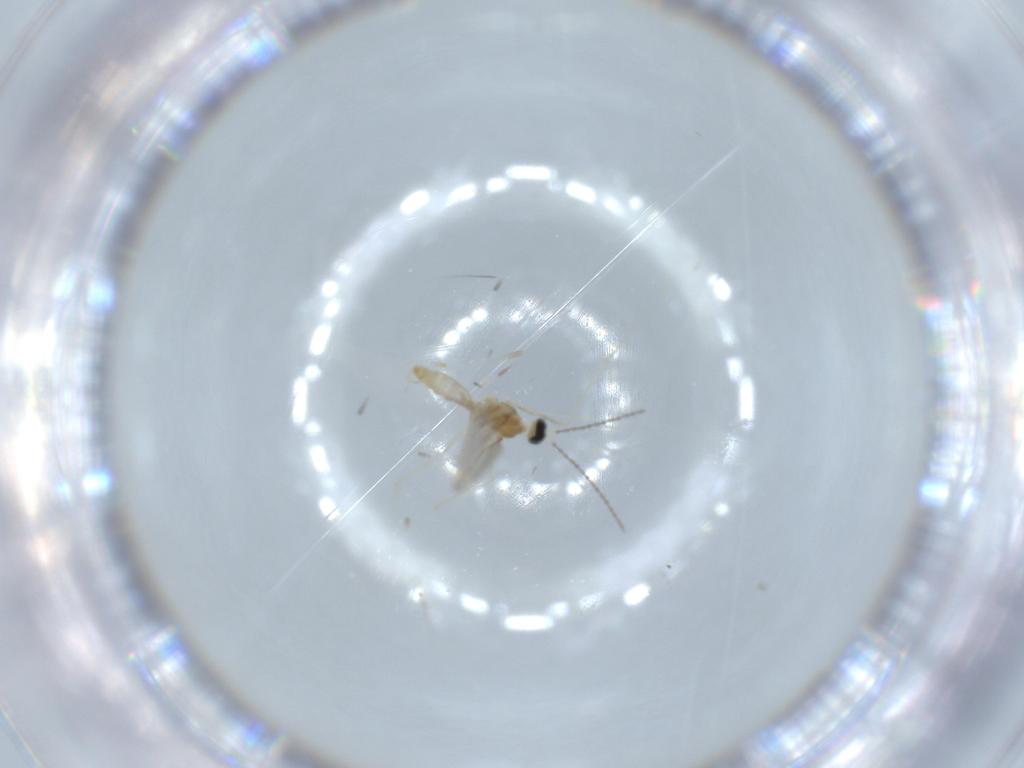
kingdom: Animalia
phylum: Arthropoda
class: Insecta
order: Diptera
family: Cecidomyiidae
